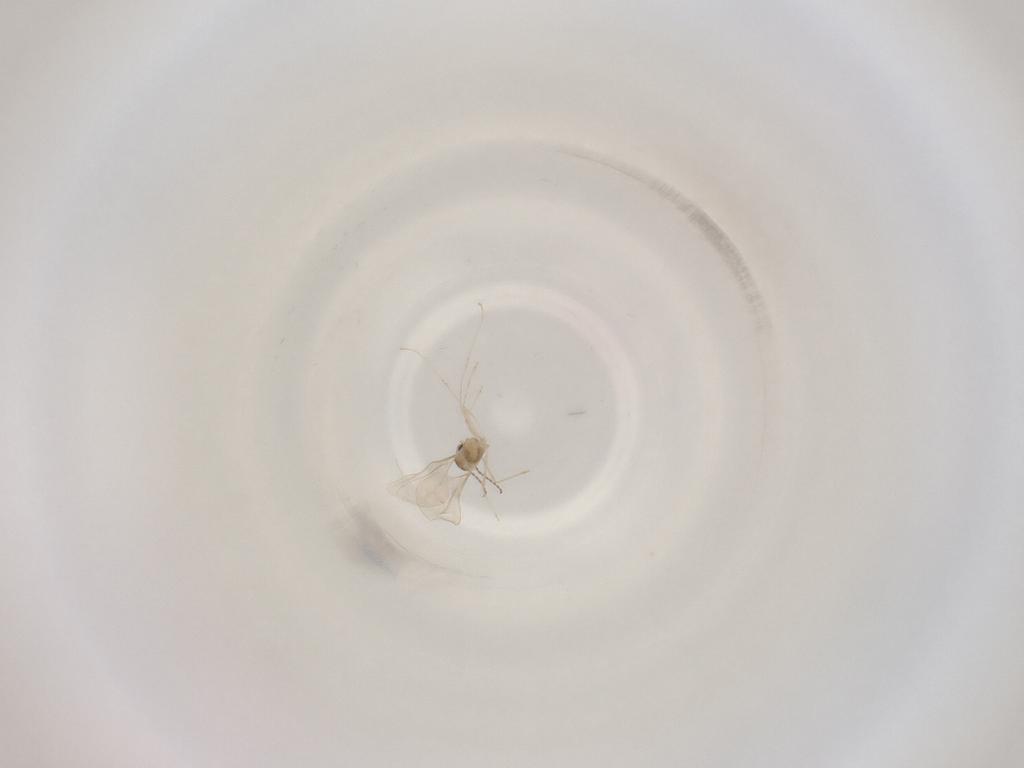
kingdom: Animalia
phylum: Arthropoda
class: Insecta
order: Diptera
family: Cecidomyiidae
